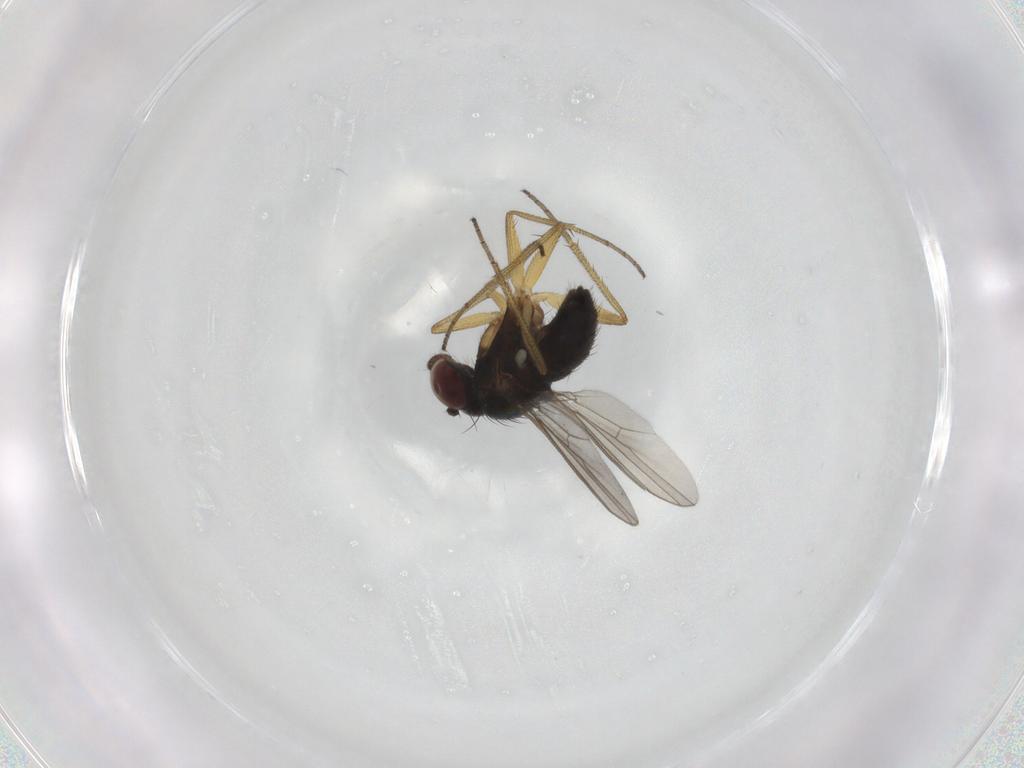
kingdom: Animalia
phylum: Arthropoda
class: Insecta
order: Diptera
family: Dolichopodidae
